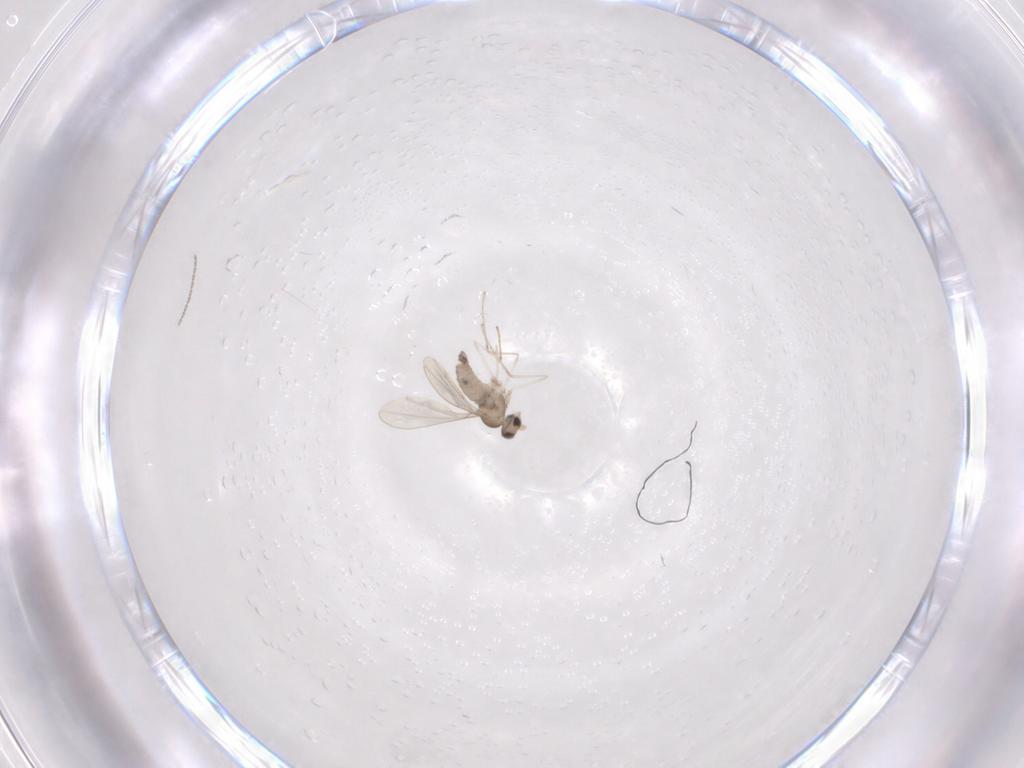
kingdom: Animalia
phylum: Arthropoda
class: Insecta
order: Diptera
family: Cecidomyiidae
